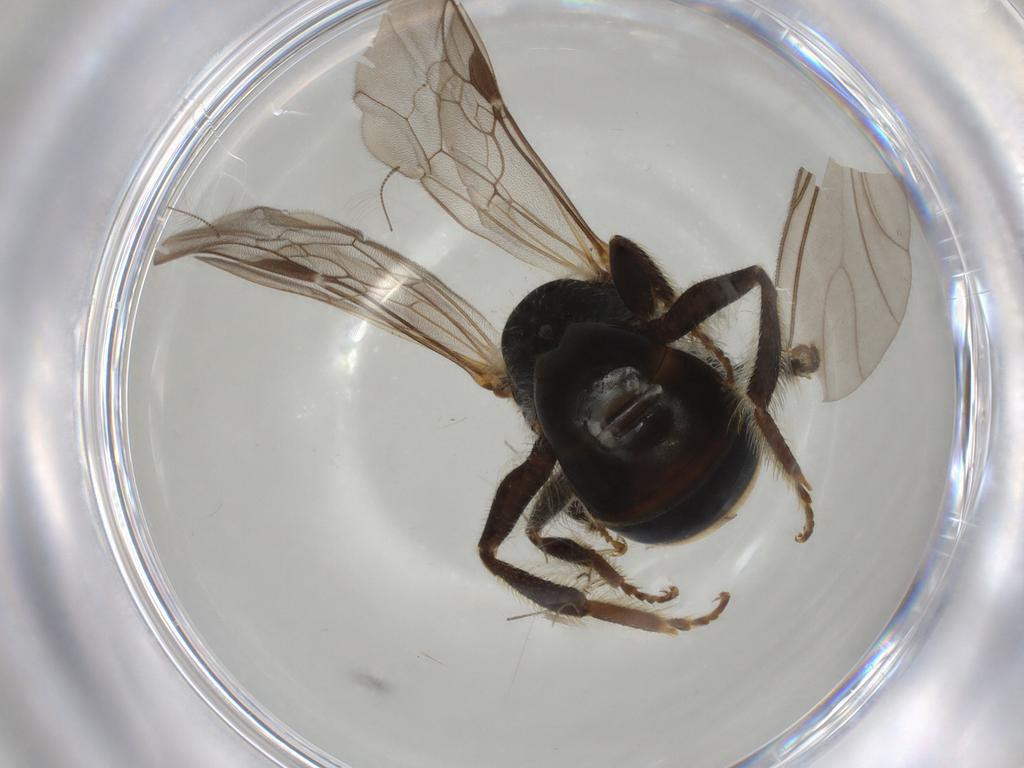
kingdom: Animalia
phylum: Arthropoda
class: Insecta
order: Hymenoptera
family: Braconidae
